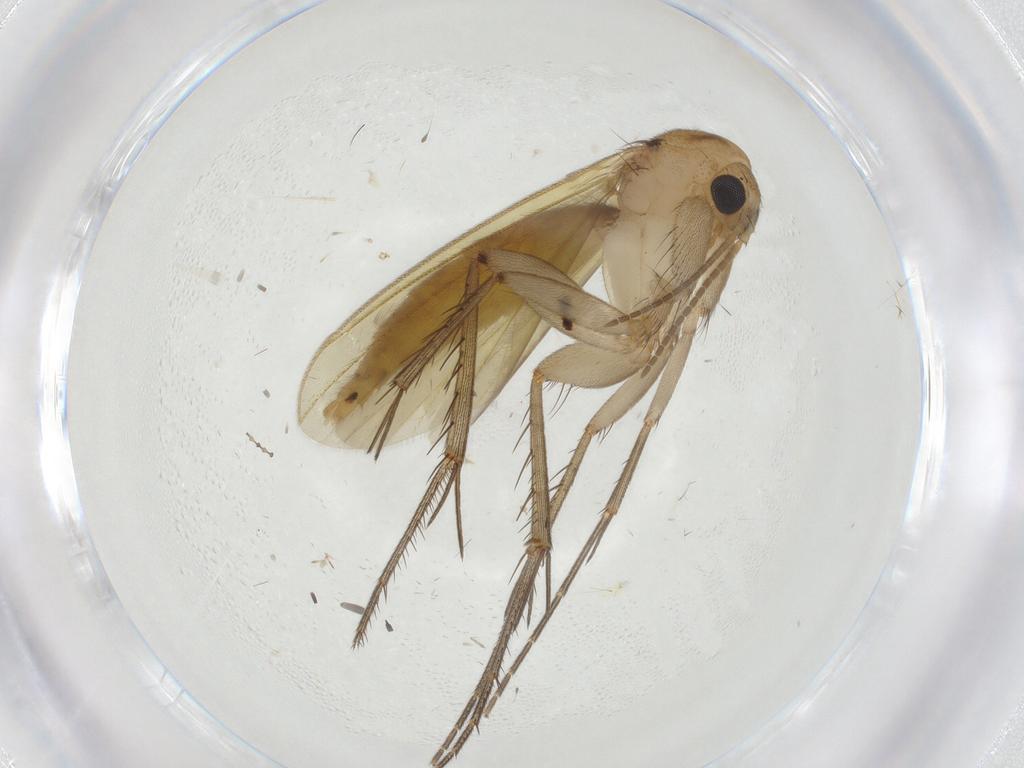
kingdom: Animalia
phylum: Arthropoda
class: Insecta
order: Diptera
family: Cecidomyiidae
